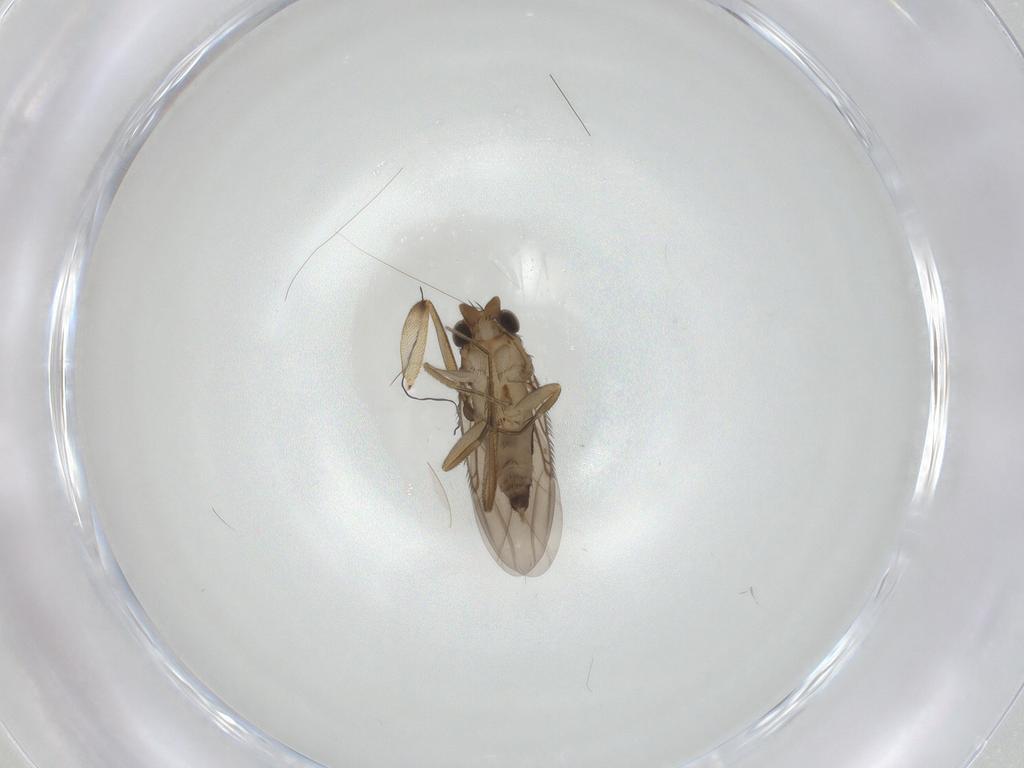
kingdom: Animalia
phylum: Arthropoda
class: Insecta
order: Diptera
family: Phoridae
